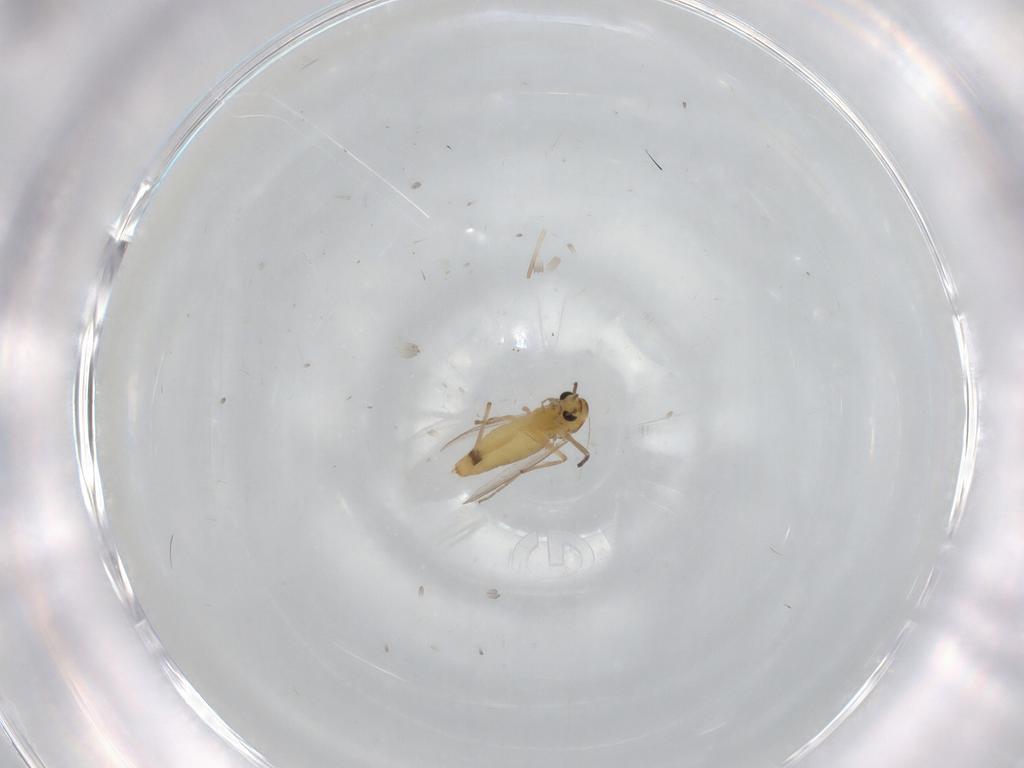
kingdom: Animalia
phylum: Arthropoda
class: Insecta
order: Diptera
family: Chironomidae
